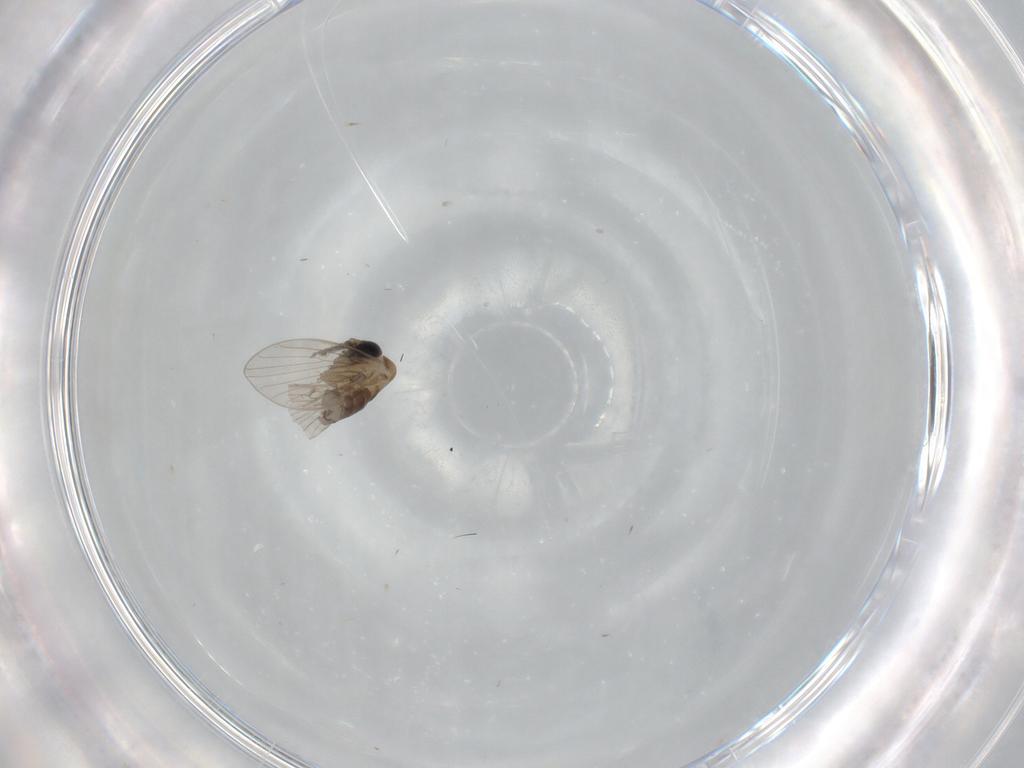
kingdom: Animalia
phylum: Arthropoda
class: Insecta
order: Diptera
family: Psychodidae
